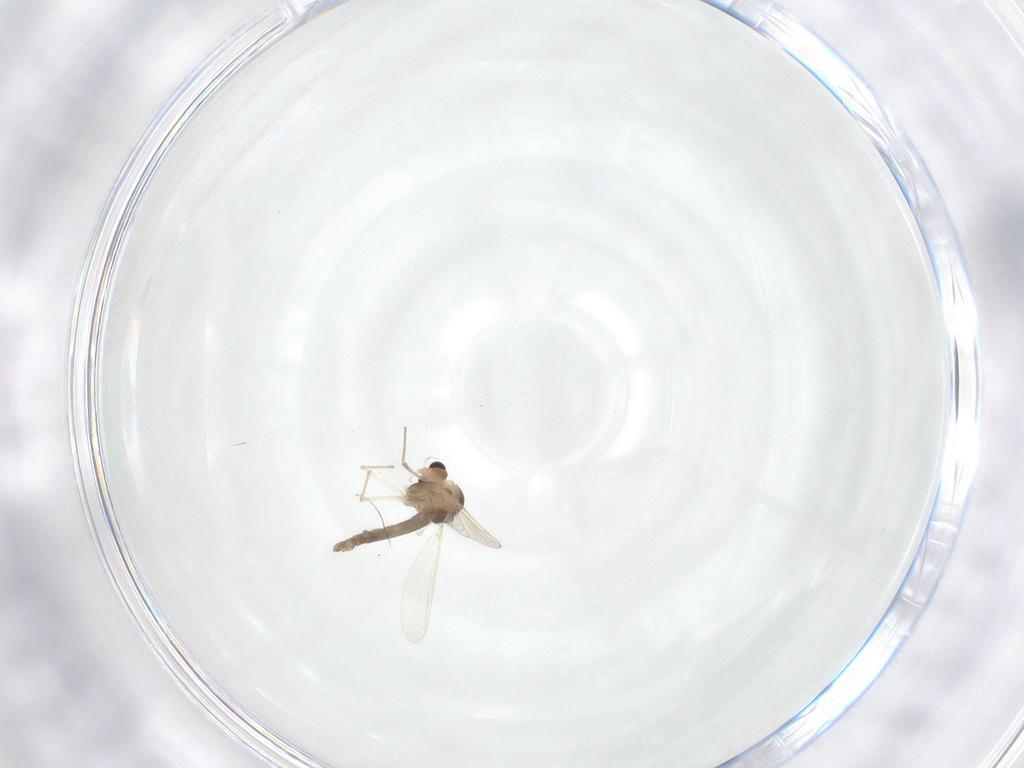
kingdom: Animalia
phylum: Arthropoda
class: Insecta
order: Diptera
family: Chironomidae
